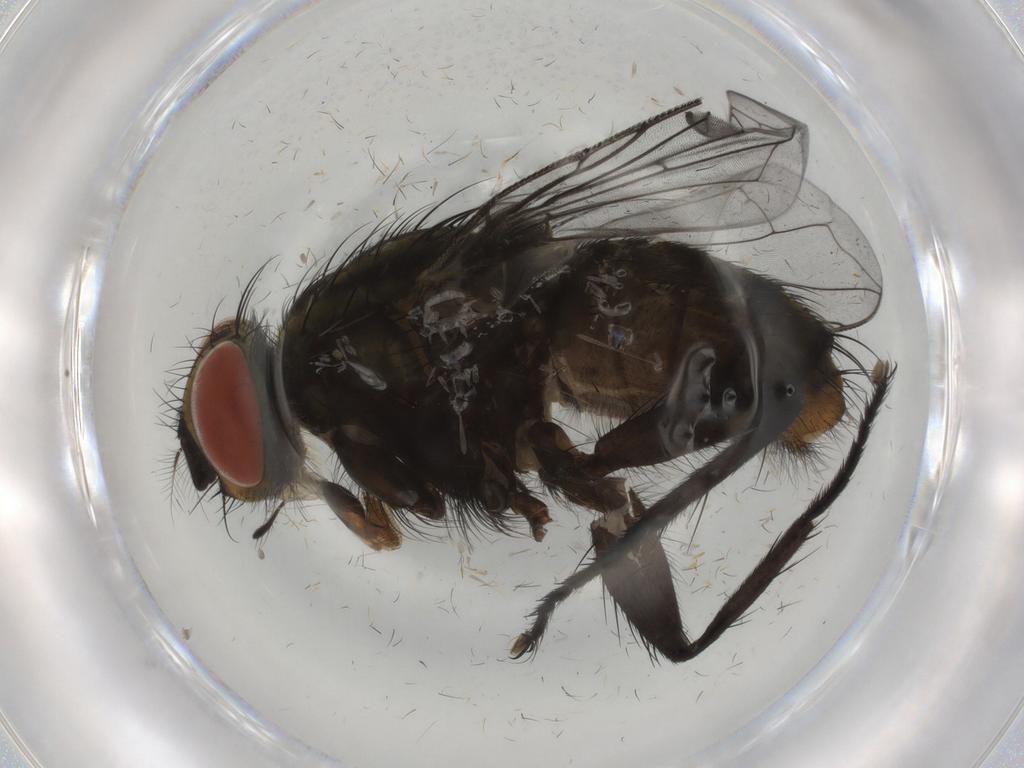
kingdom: Animalia
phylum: Arthropoda
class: Insecta
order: Diptera
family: Sarcophagidae
